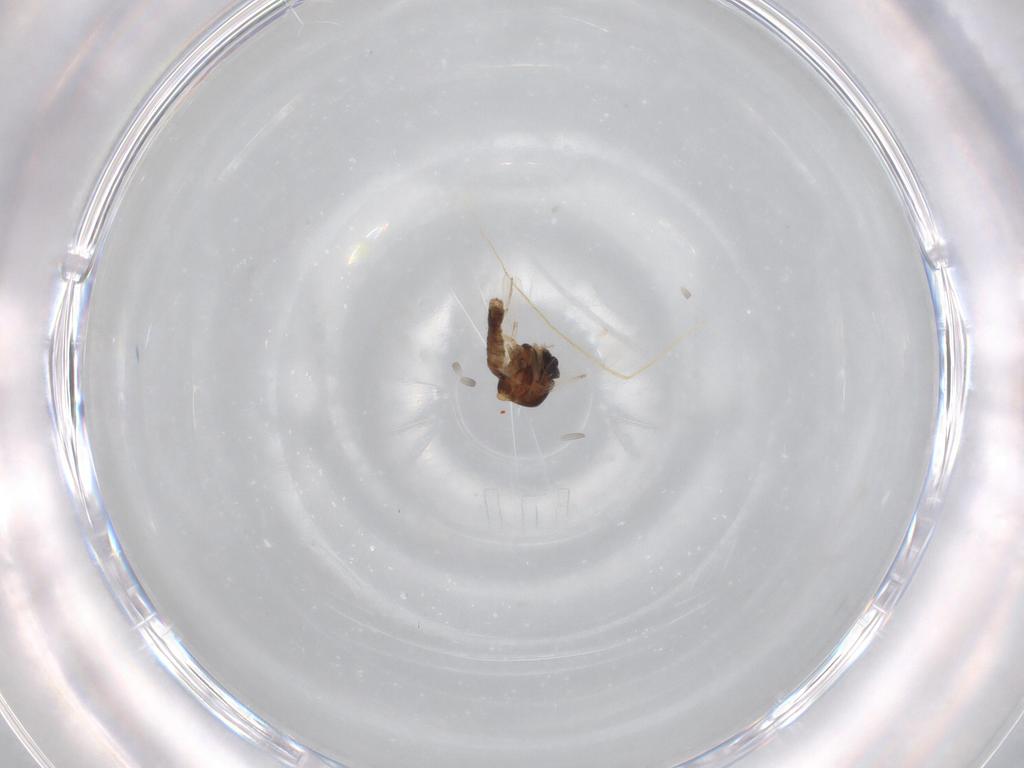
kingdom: Animalia
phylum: Arthropoda
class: Insecta
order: Diptera
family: Ceratopogonidae
